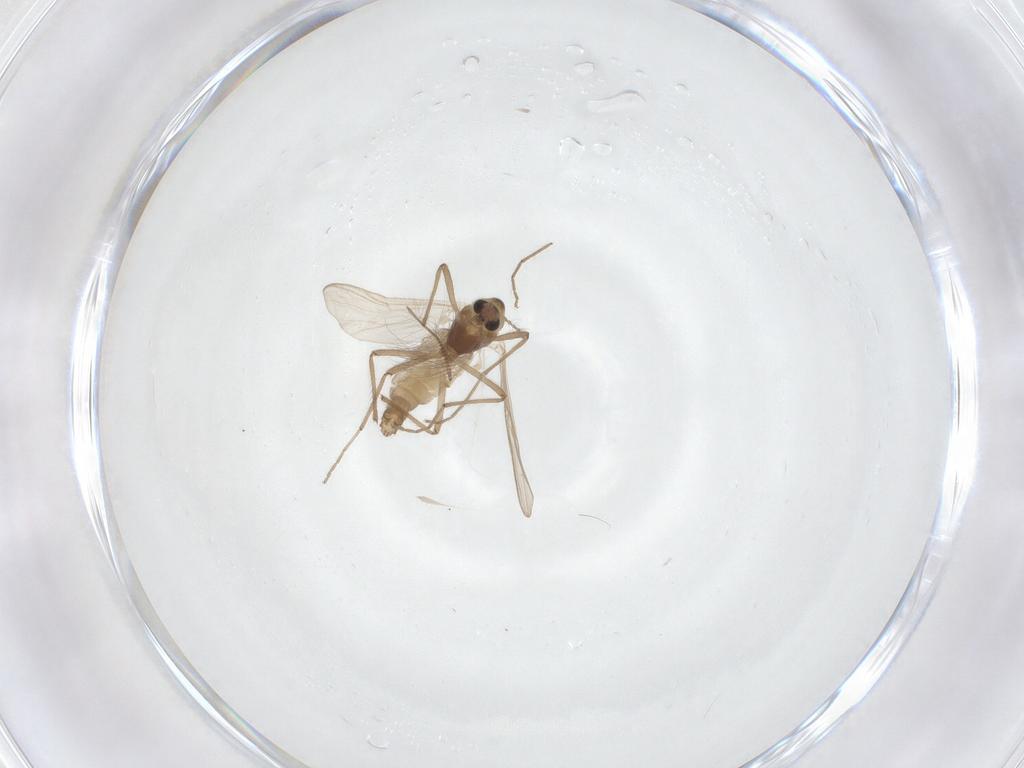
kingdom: Animalia
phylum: Arthropoda
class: Insecta
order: Diptera
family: Chironomidae
